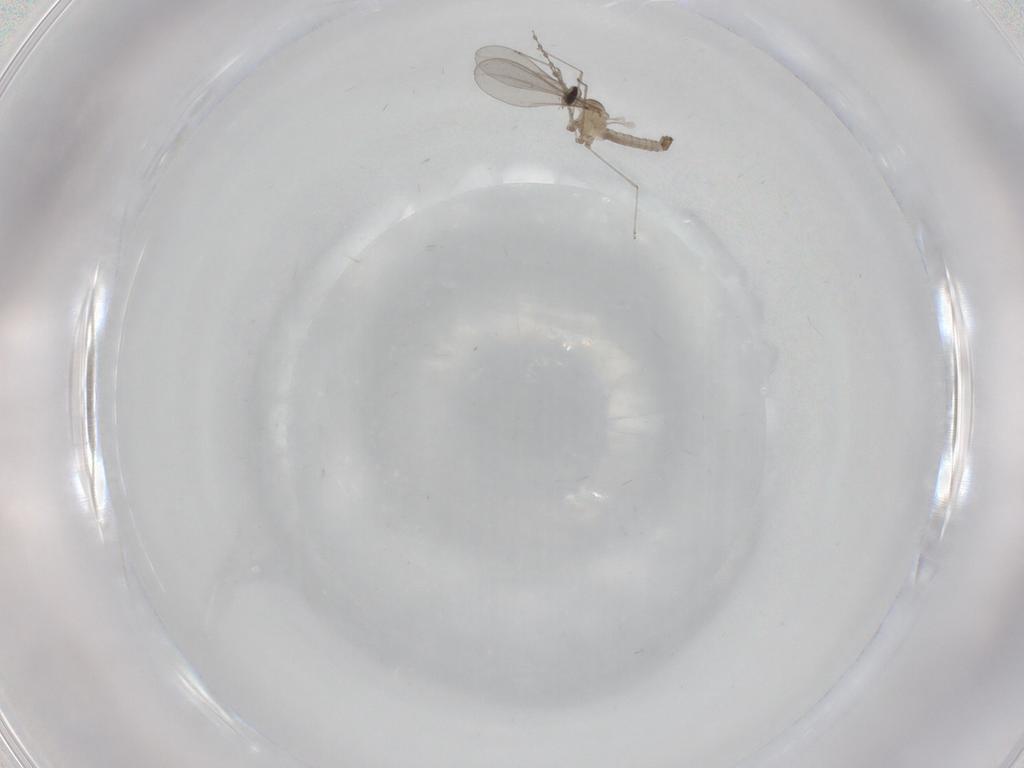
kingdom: Animalia
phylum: Arthropoda
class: Insecta
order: Diptera
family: Cecidomyiidae
